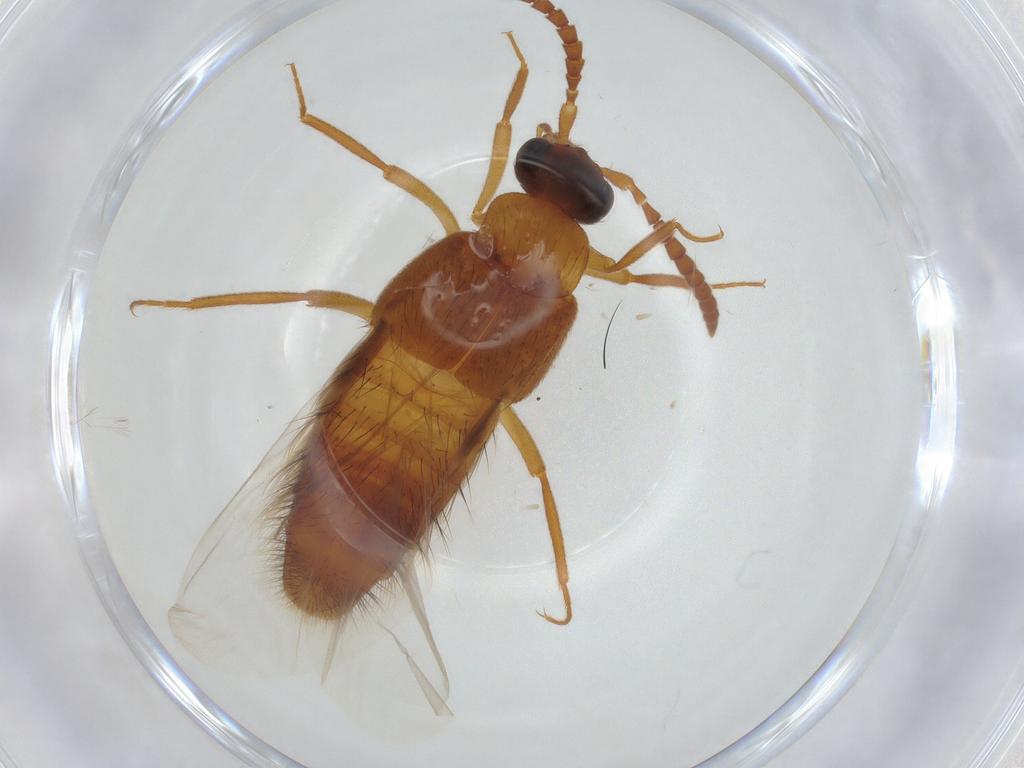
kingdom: Animalia
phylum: Arthropoda
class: Insecta
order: Coleoptera
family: Staphylinidae
